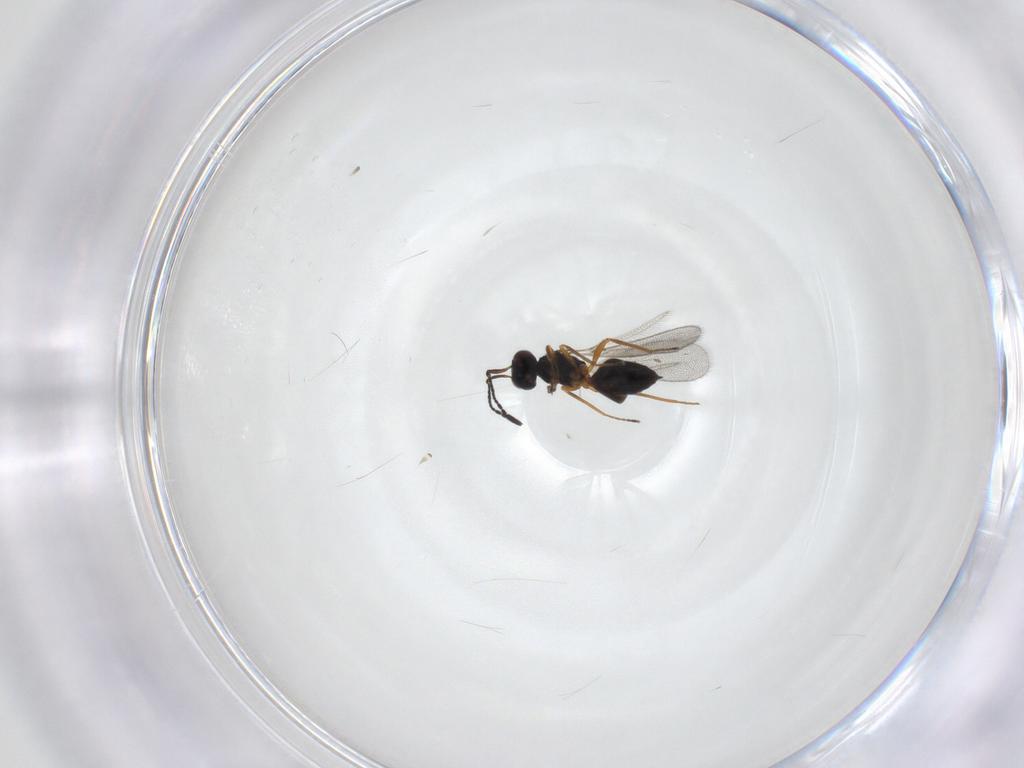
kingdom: Animalia
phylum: Arthropoda
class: Insecta
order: Hymenoptera
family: Mymaridae
